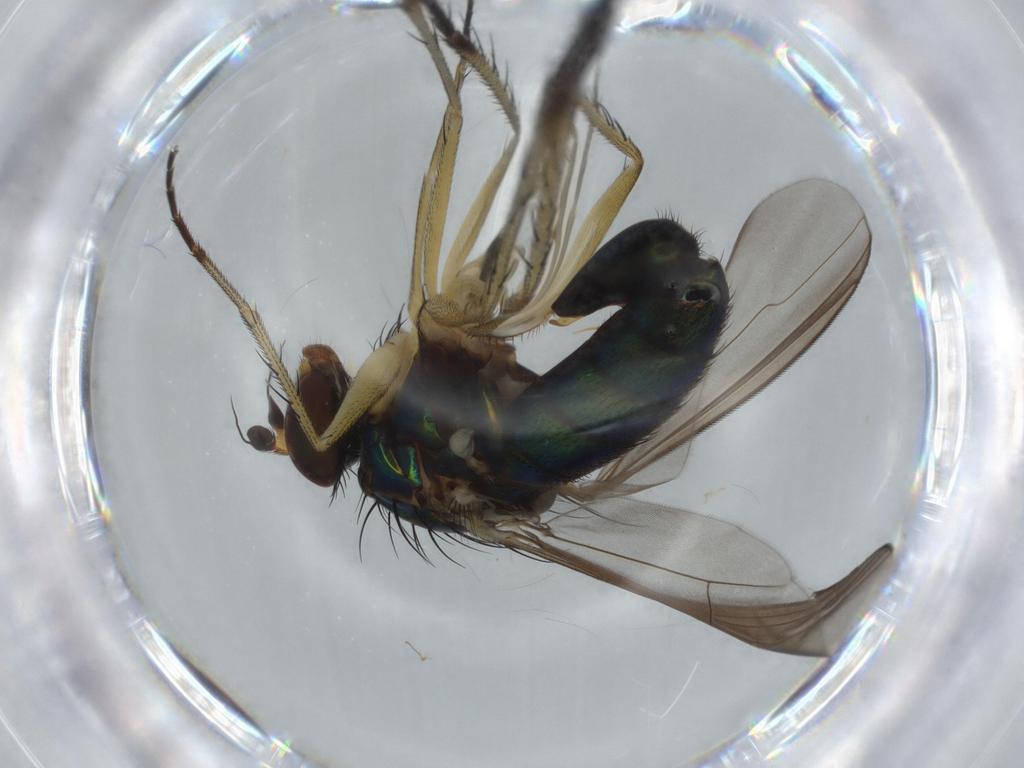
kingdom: Animalia
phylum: Arthropoda
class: Insecta
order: Diptera
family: Dolichopodidae
